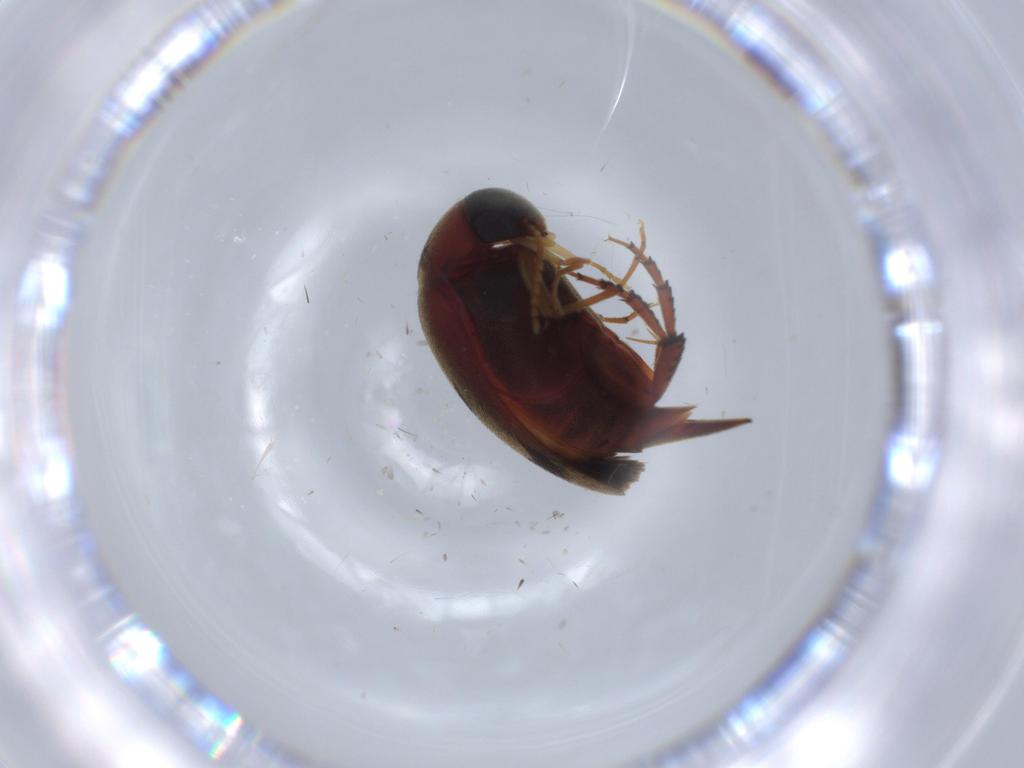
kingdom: Animalia
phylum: Arthropoda
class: Insecta
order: Coleoptera
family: Mordellidae
